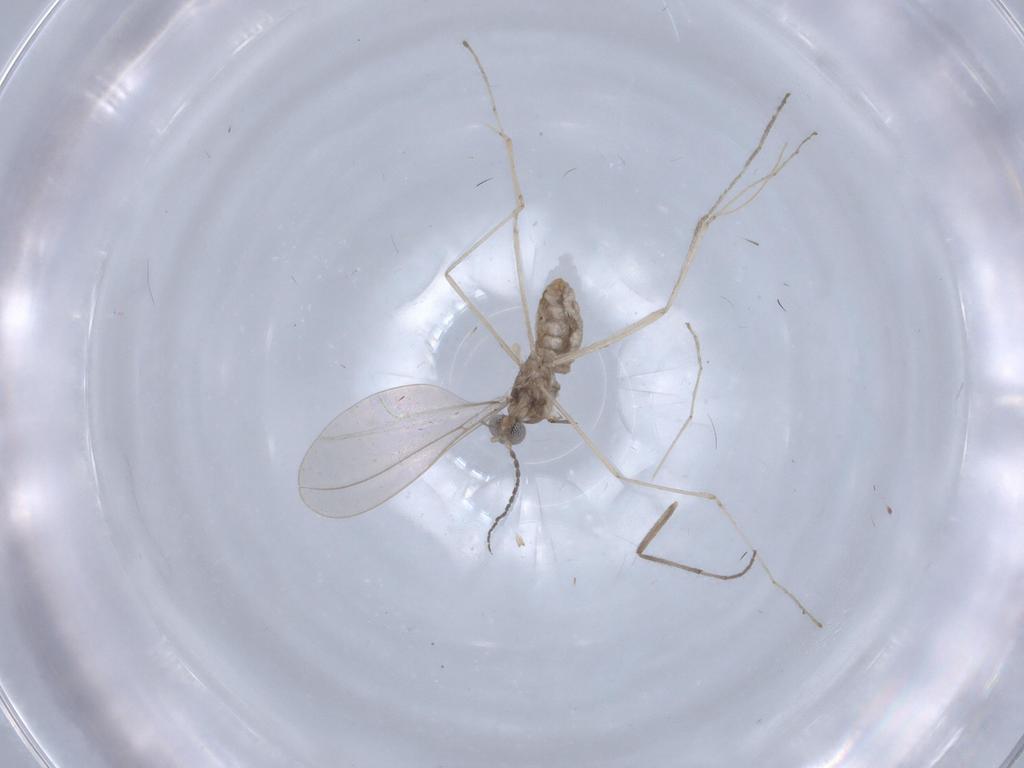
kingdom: Animalia
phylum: Arthropoda
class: Insecta
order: Diptera
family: Cecidomyiidae
